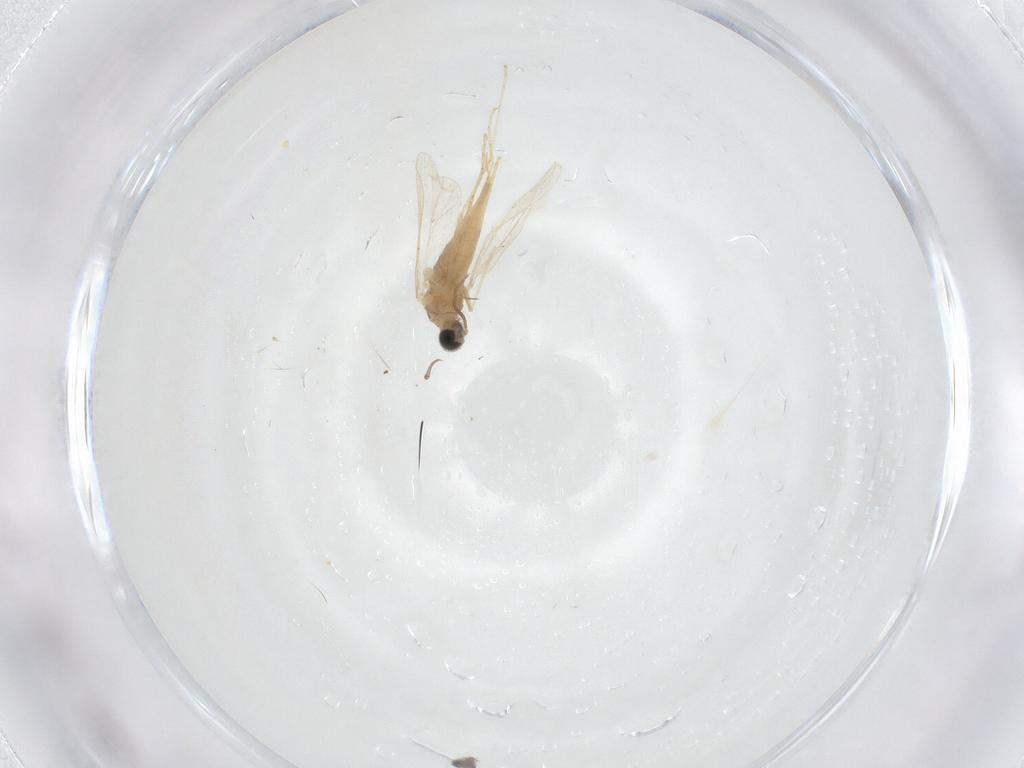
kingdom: Animalia
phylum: Arthropoda
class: Insecta
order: Diptera
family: Cecidomyiidae
